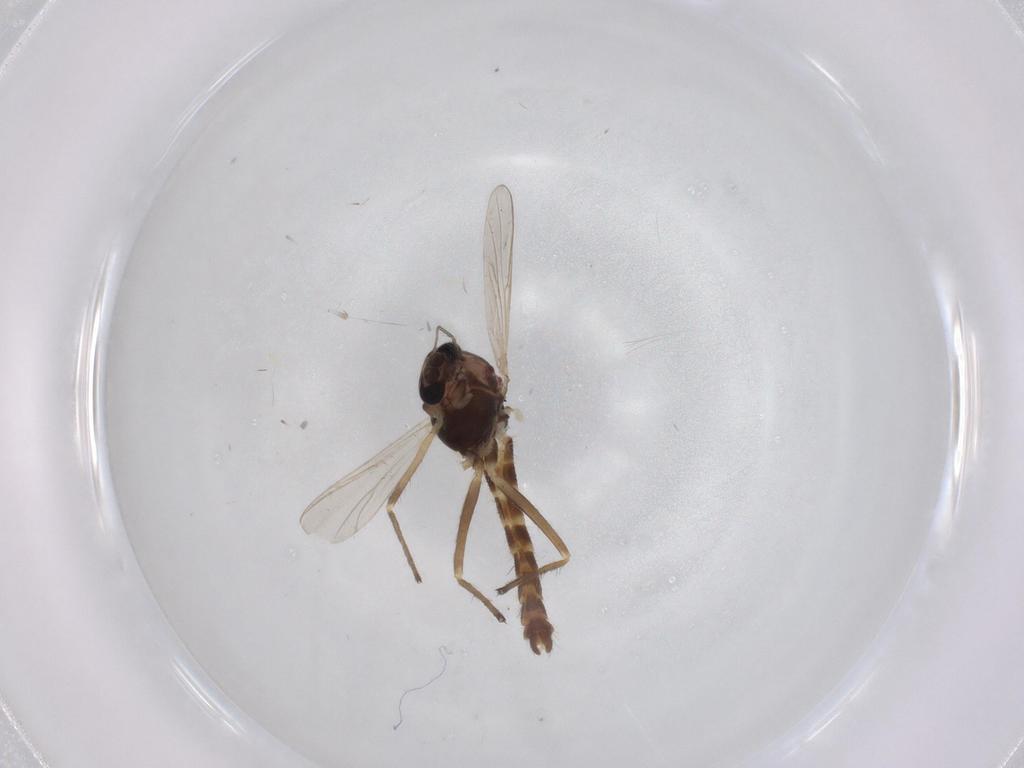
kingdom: Animalia
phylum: Arthropoda
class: Insecta
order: Diptera
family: Chironomidae
